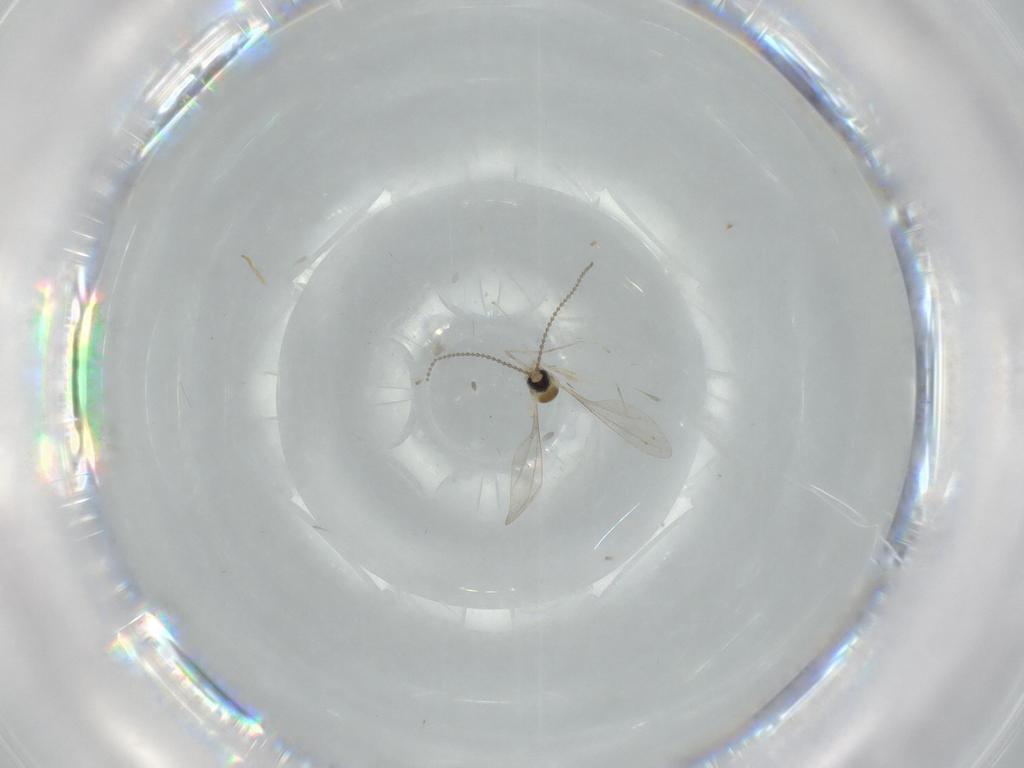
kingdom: Animalia
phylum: Arthropoda
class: Insecta
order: Diptera
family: Cecidomyiidae
